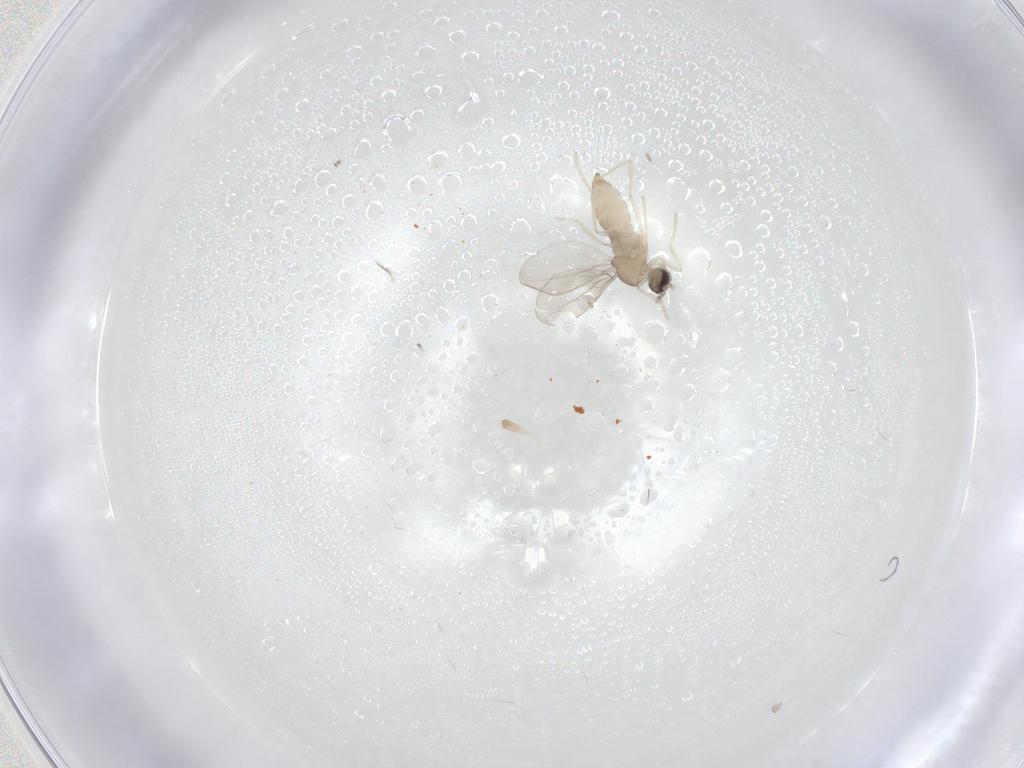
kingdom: Animalia
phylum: Arthropoda
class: Insecta
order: Diptera
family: Cecidomyiidae
